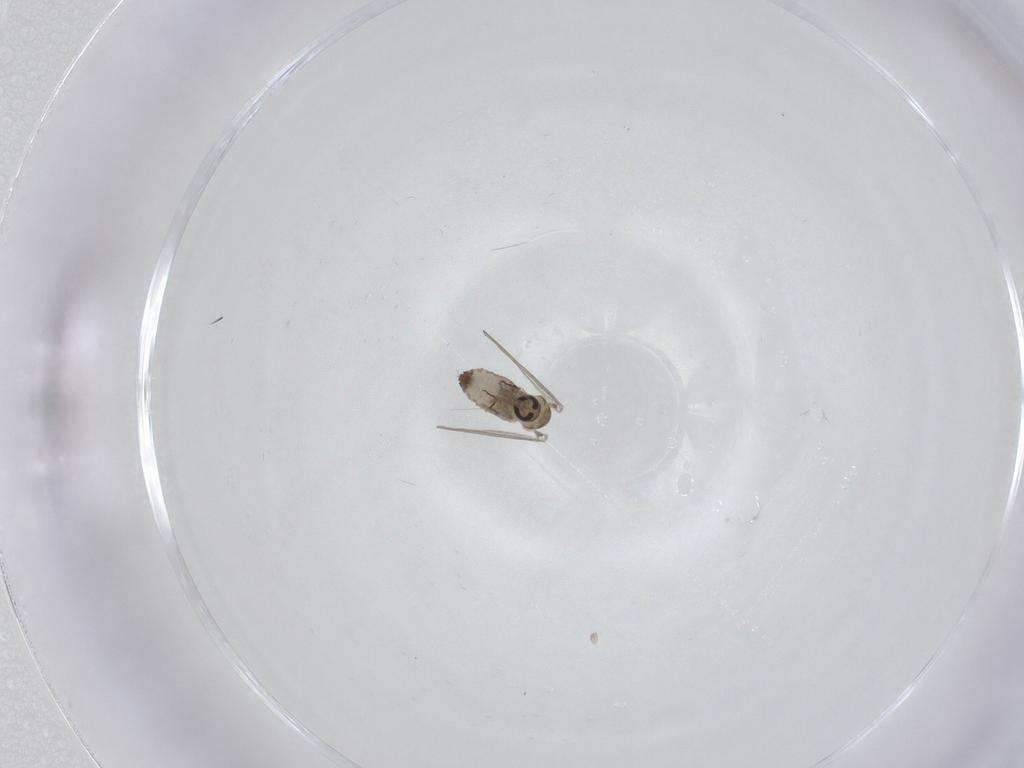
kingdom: Animalia
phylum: Arthropoda
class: Insecta
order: Diptera
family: Psychodidae
